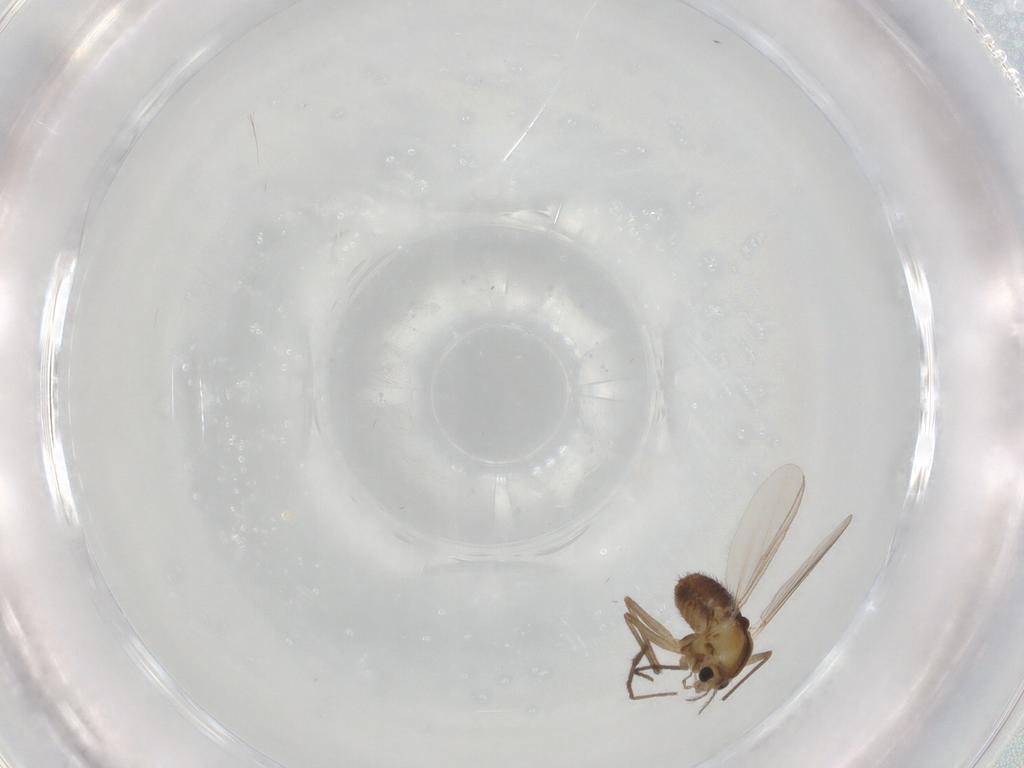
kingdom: Animalia
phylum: Arthropoda
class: Insecta
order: Diptera
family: Chironomidae
